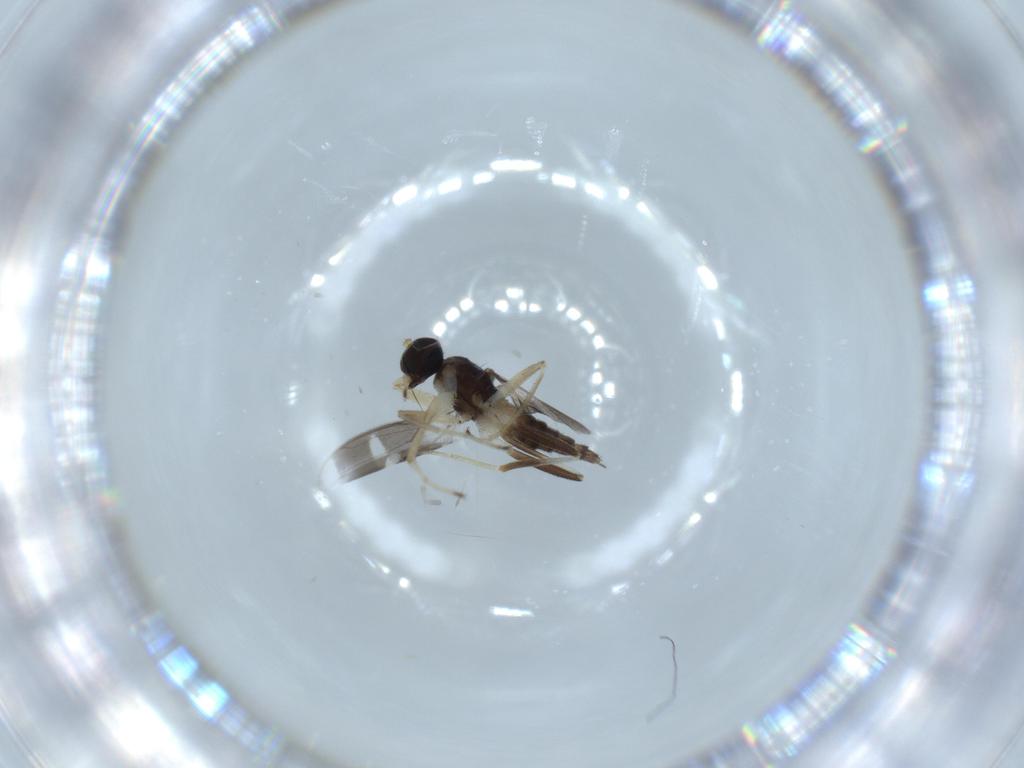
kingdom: Animalia
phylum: Arthropoda
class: Insecta
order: Diptera
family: Hybotidae
